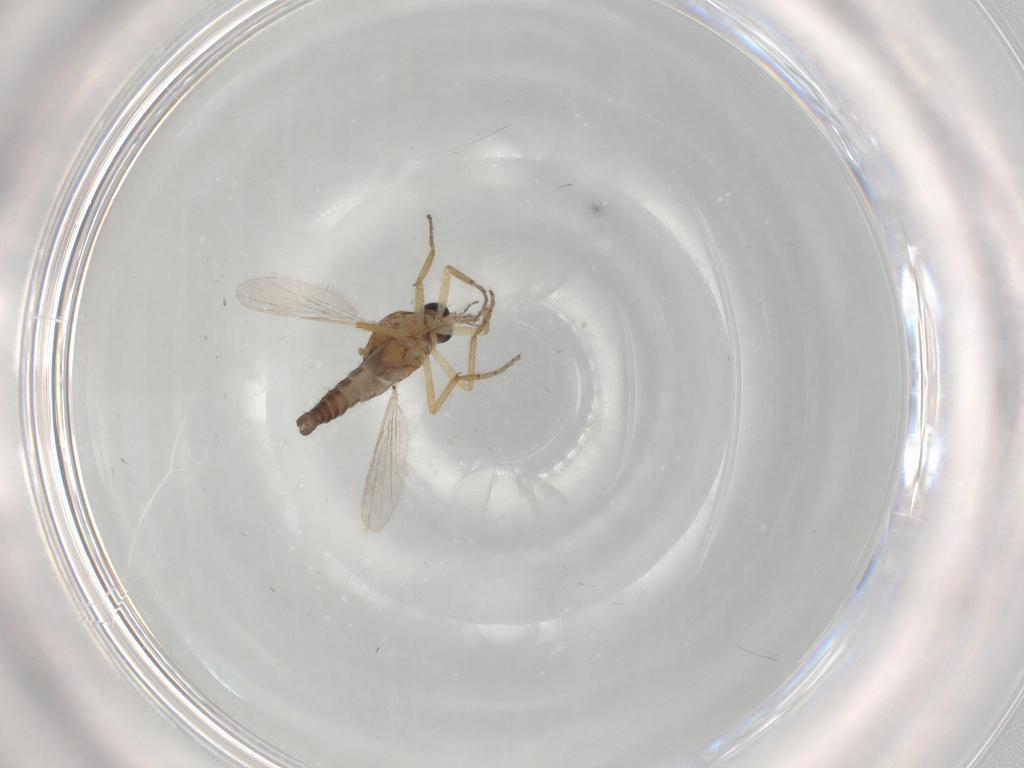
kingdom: Animalia
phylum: Arthropoda
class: Insecta
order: Diptera
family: Ceratopogonidae
